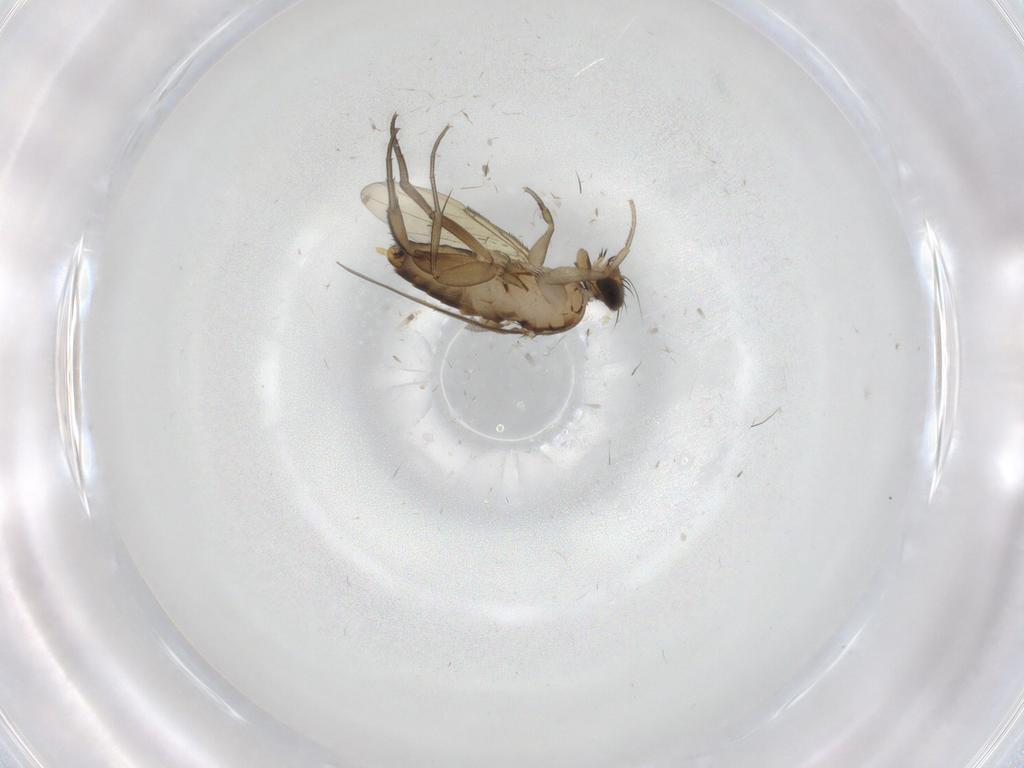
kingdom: Animalia
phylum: Arthropoda
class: Insecta
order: Diptera
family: Phoridae
